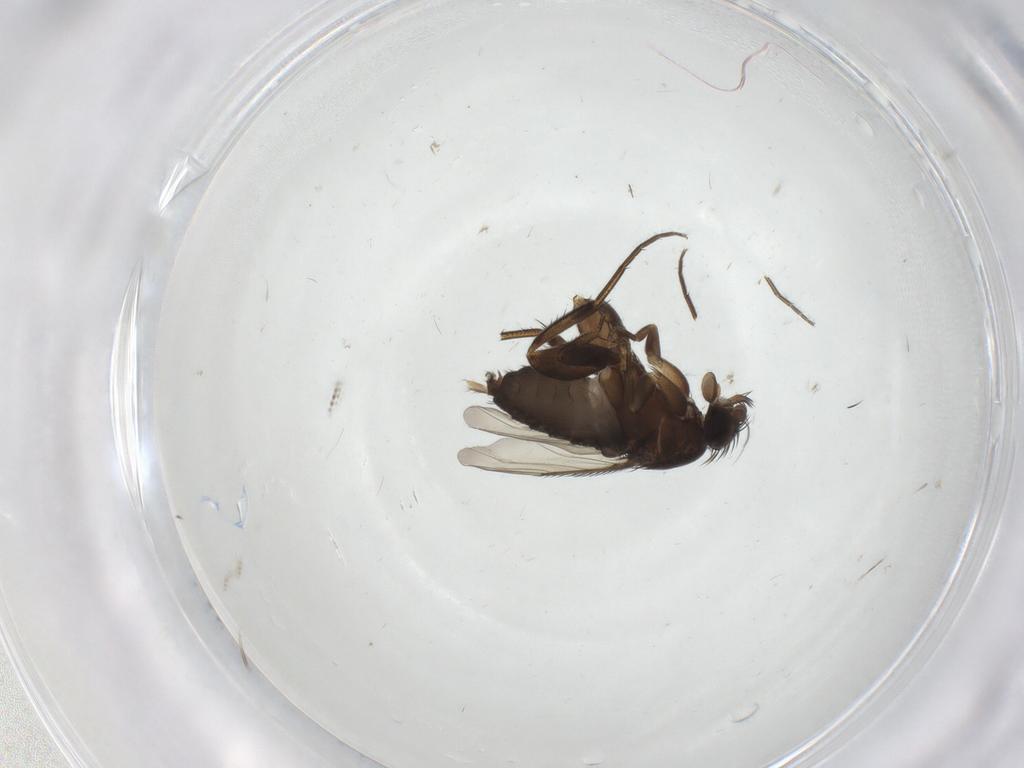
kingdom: Animalia
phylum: Arthropoda
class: Insecta
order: Diptera
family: Phoridae
